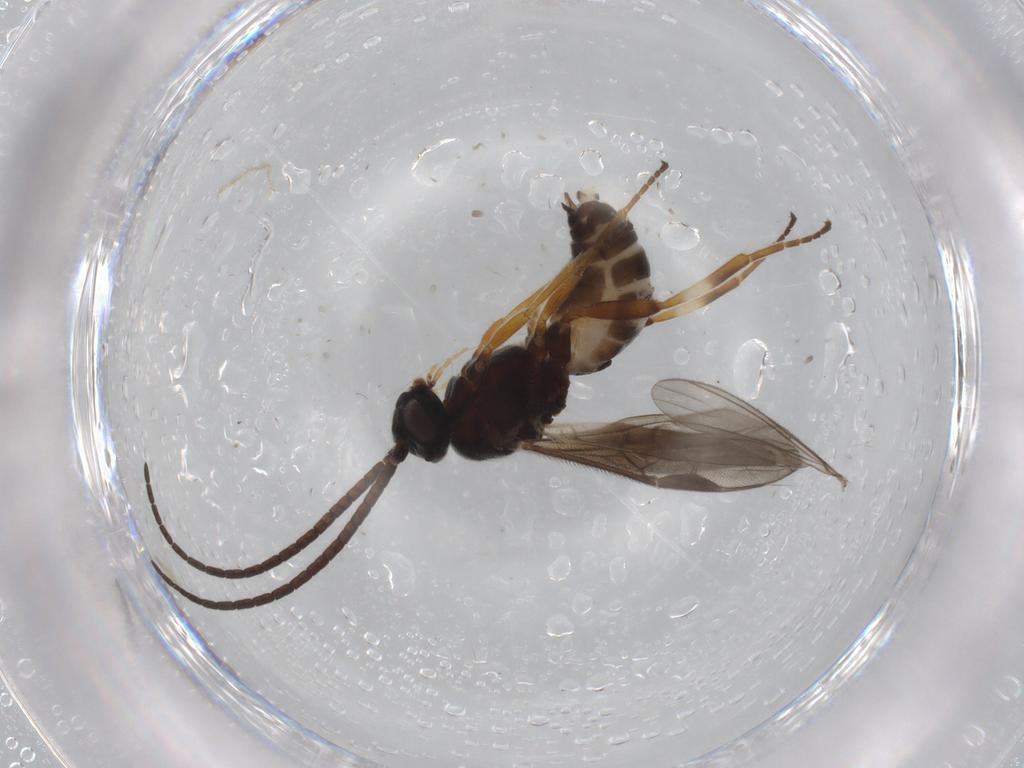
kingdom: Animalia
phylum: Arthropoda
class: Insecta
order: Hymenoptera
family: Braconidae
